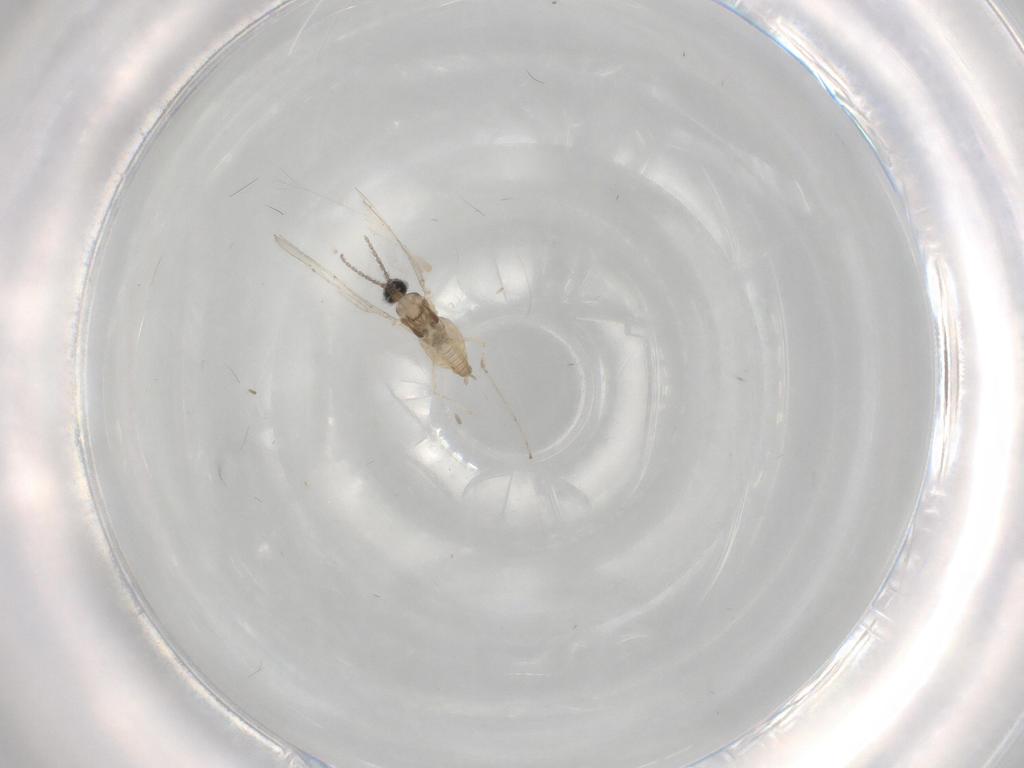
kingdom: Animalia
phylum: Arthropoda
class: Insecta
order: Diptera
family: Cecidomyiidae
